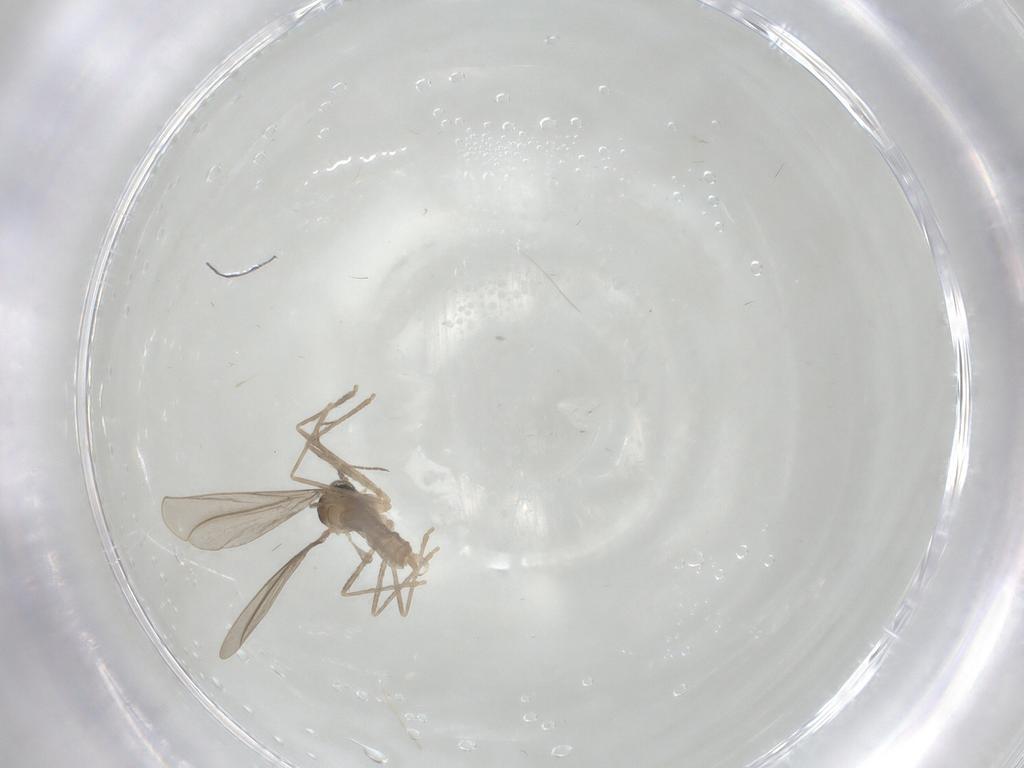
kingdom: Animalia
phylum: Arthropoda
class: Insecta
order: Diptera
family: Cecidomyiidae
